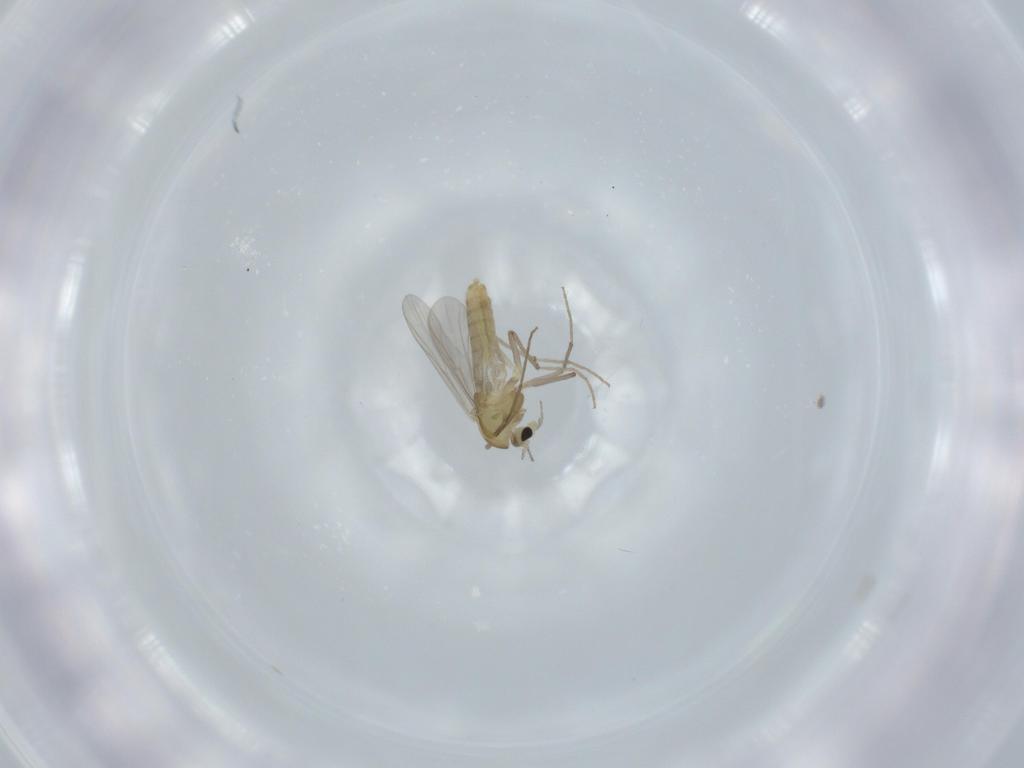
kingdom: Animalia
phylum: Arthropoda
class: Insecta
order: Diptera
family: Chironomidae
